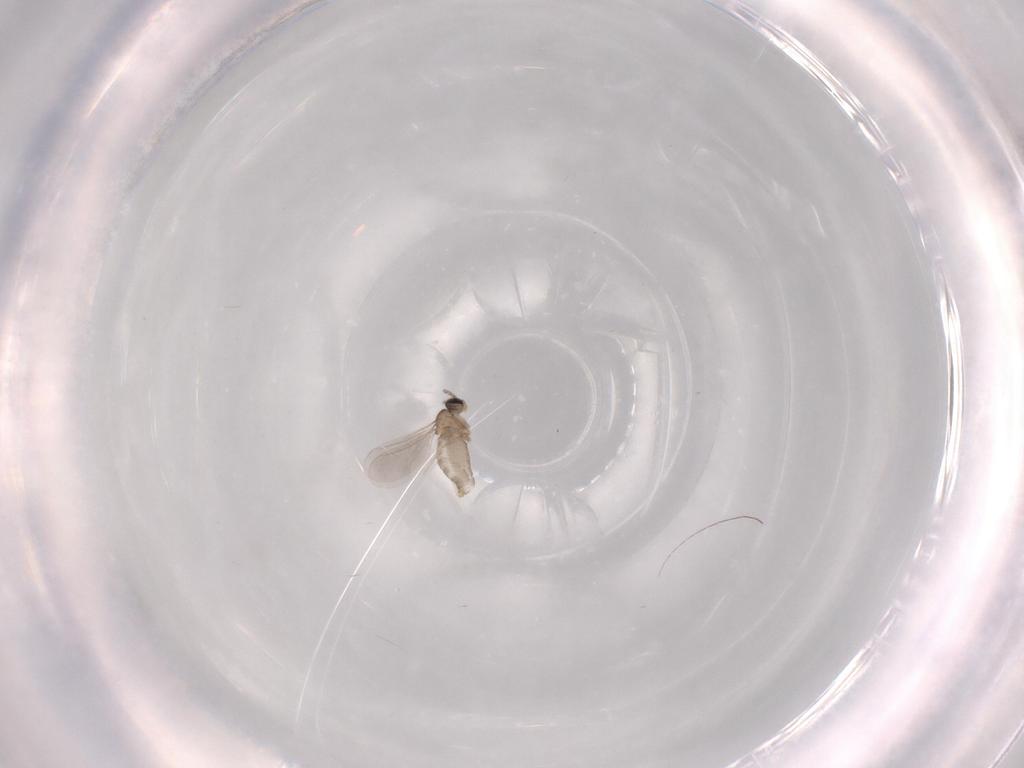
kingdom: Animalia
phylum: Arthropoda
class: Insecta
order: Diptera
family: Cecidomyiidae
